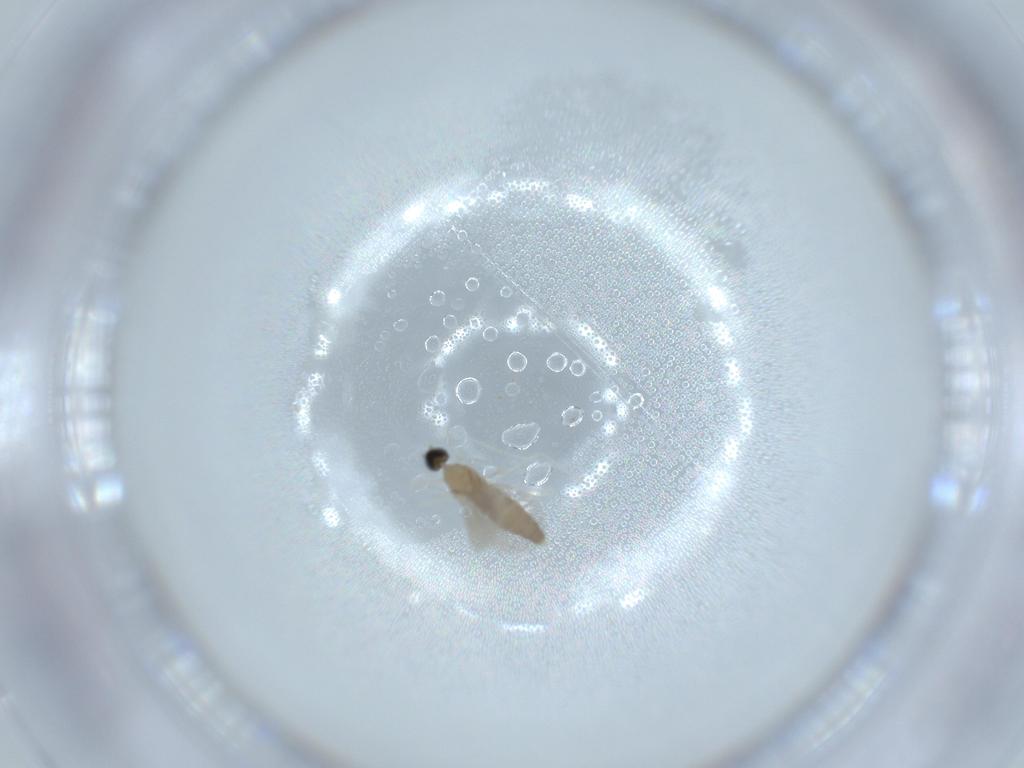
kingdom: Animalia
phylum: Arthropoda
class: Insecta
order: Diptera
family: Cecidomyiidae
